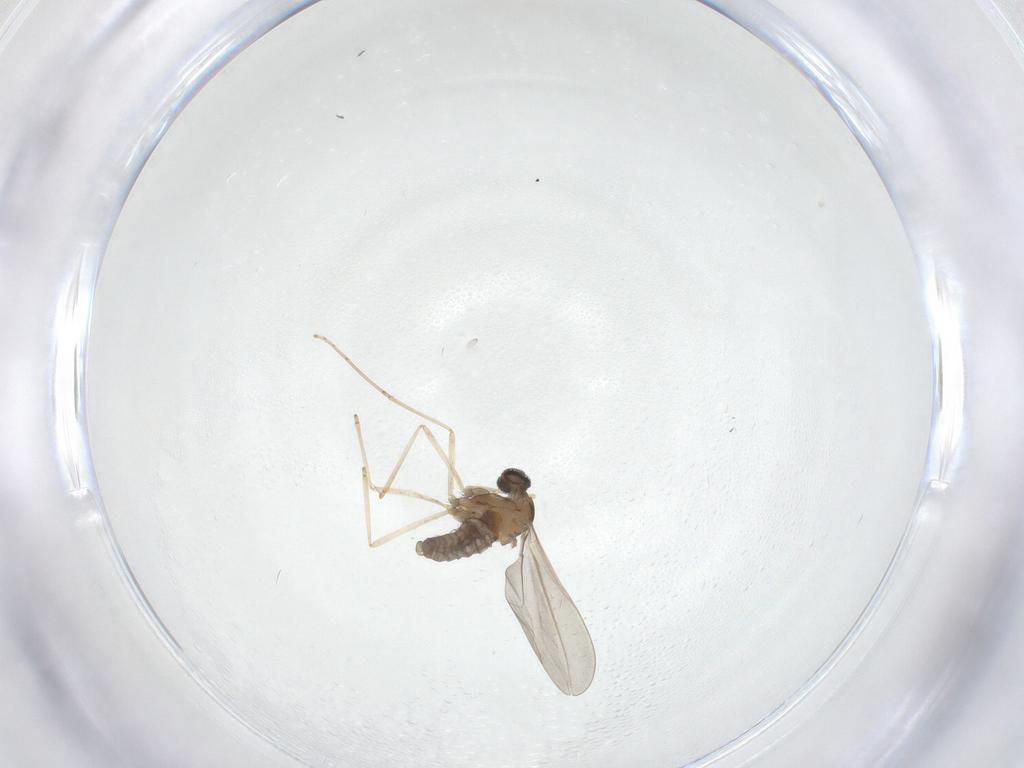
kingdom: Animalia
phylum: Arthropoda
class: Insecta
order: Diptera
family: Cecidomyiidae
